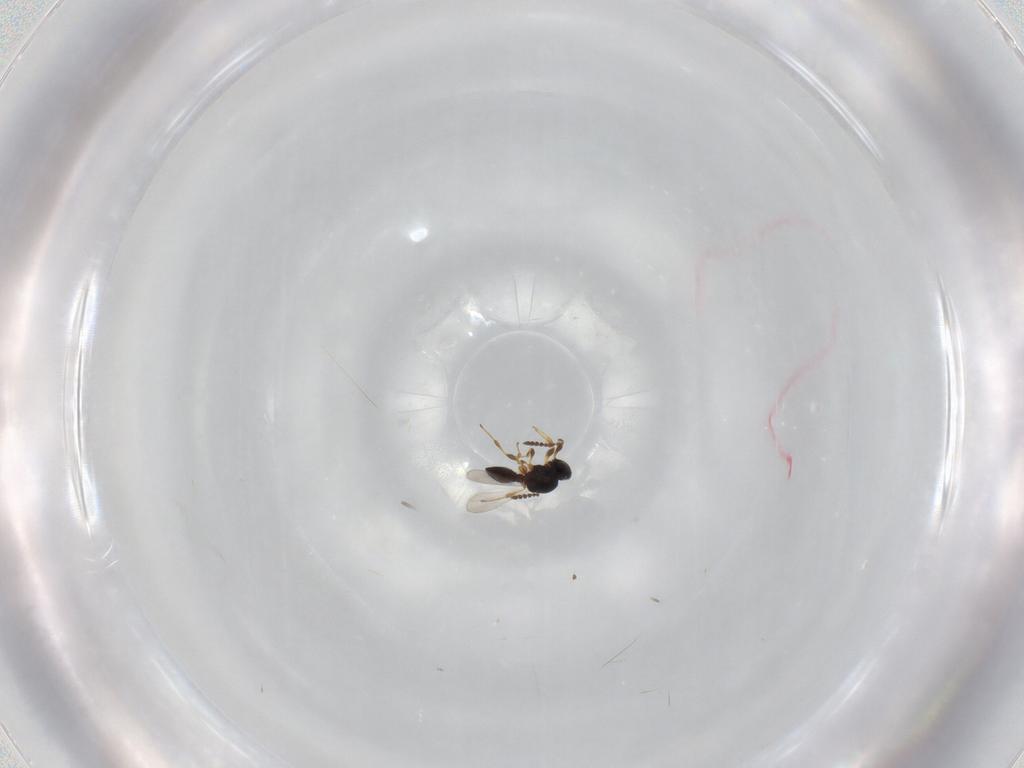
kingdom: Animalia
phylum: Arthropoda
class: Insecta
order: Hymenoptera
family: Platygastridae
